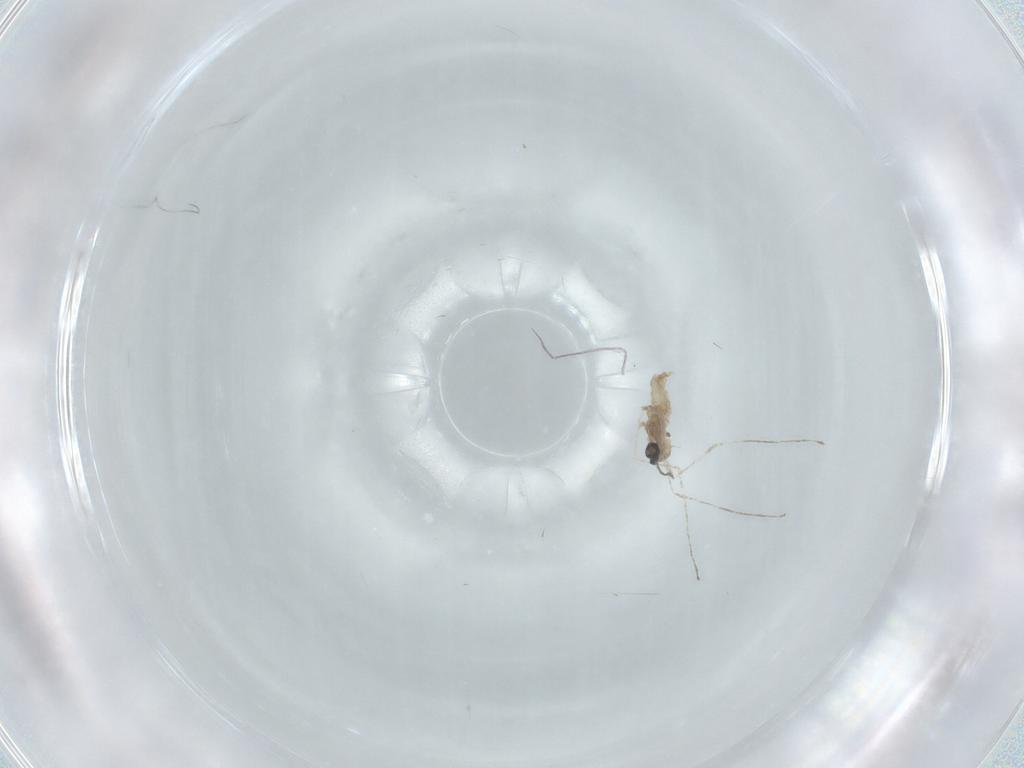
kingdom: Animalia
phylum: Arthropoda
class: Insecta
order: Diptera
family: Cecidomyiidae
